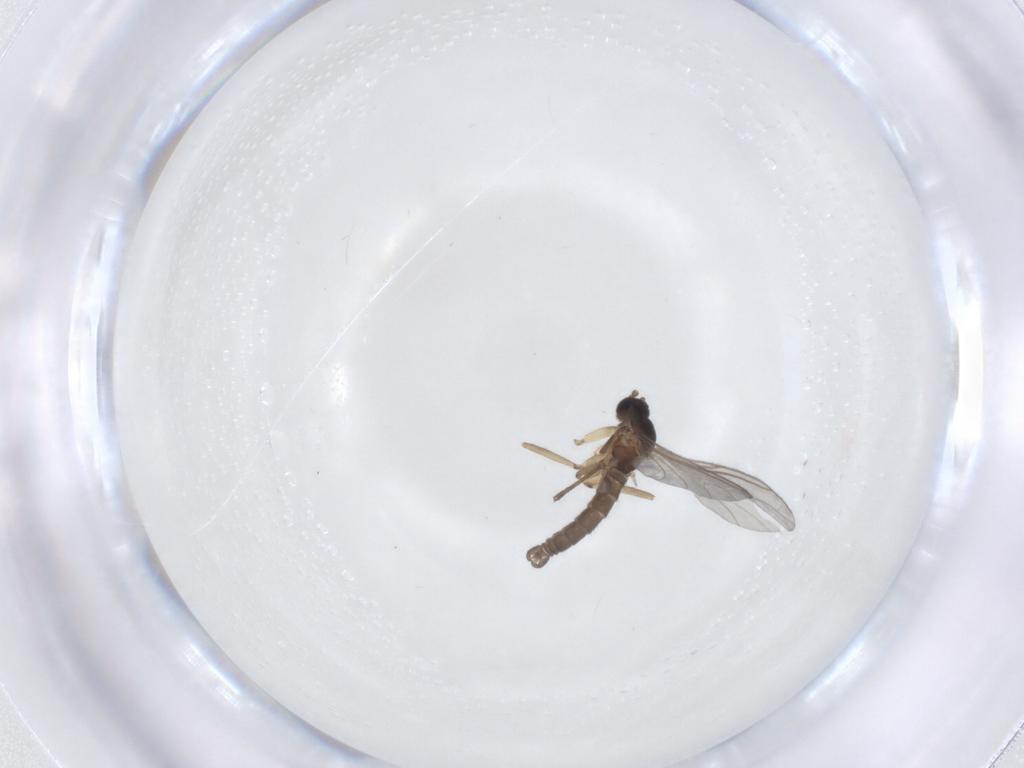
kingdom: Animalia
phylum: Arthropoda
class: Insecta
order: Diptera
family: Sciaridae
